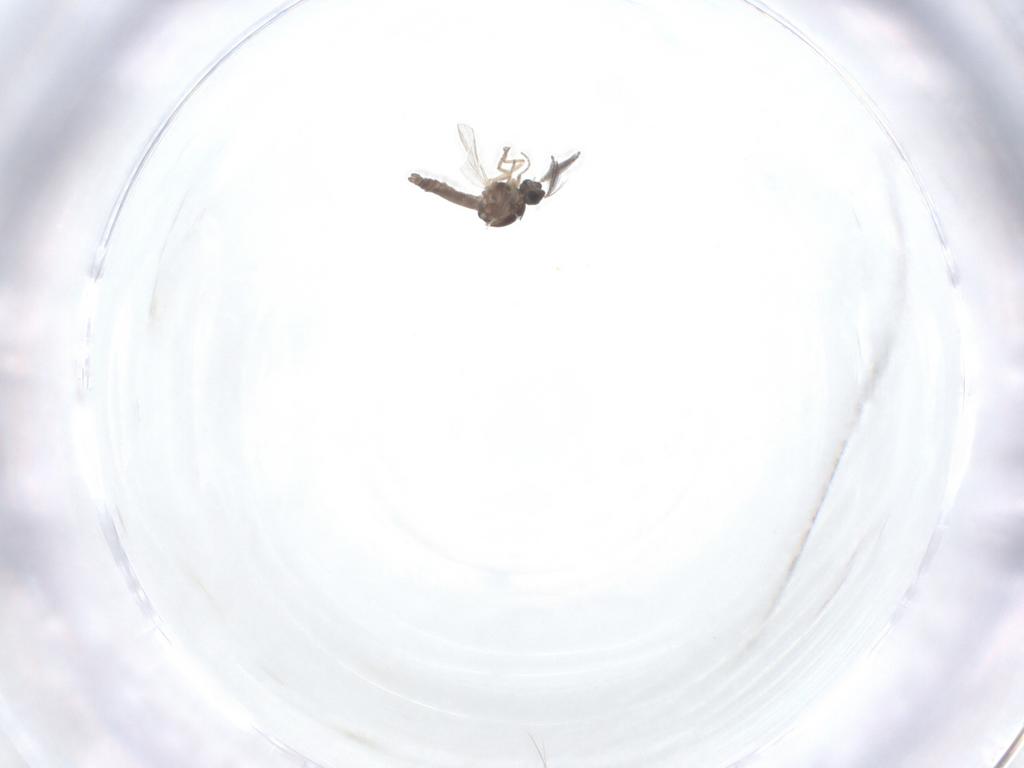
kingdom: Animalia
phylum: Arthropoda
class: Insecta
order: Diptera
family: Ceratopogonidae
